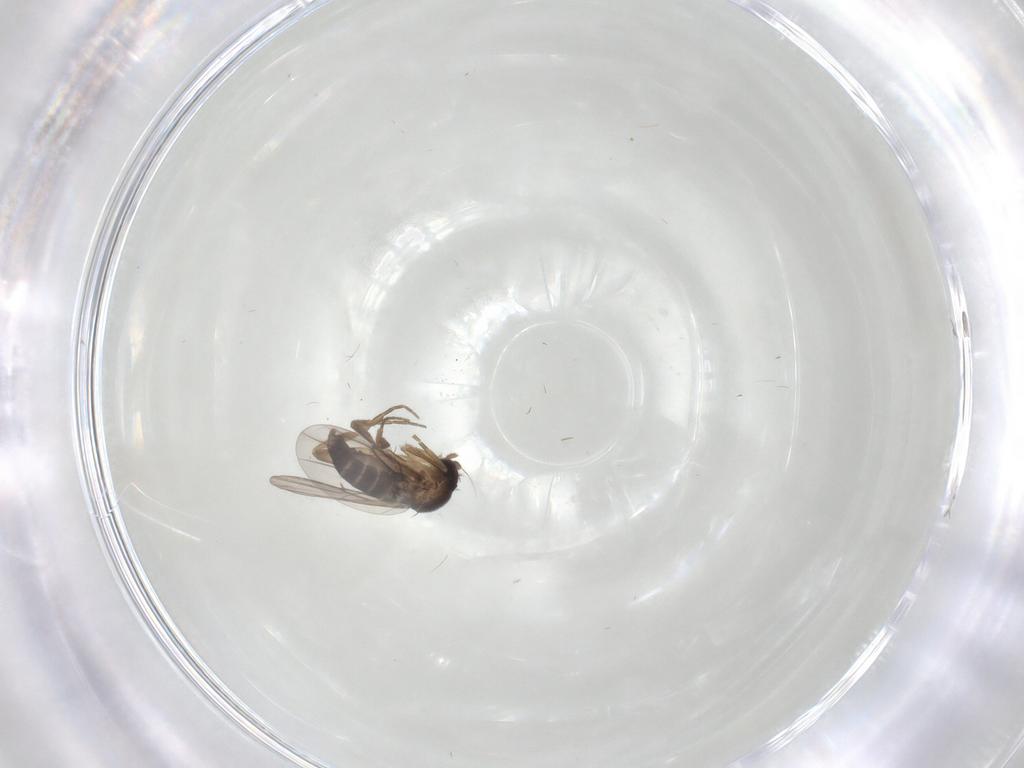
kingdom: Animalia
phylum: Arthropoda
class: Insecta
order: Diptera
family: Chironomidae
